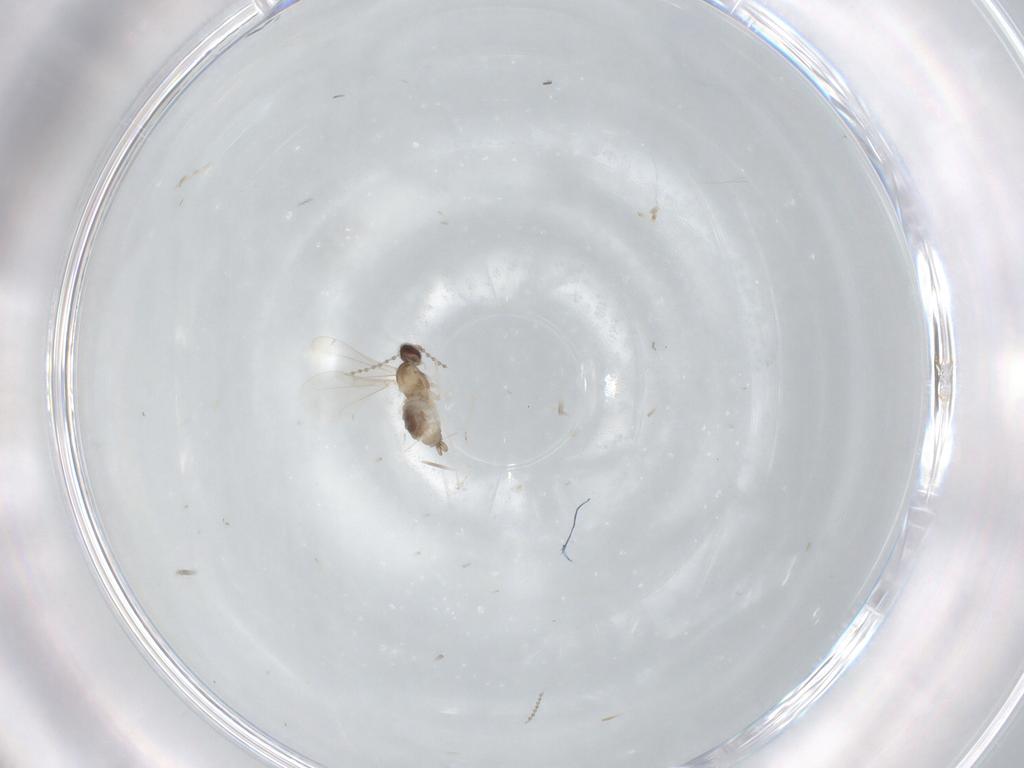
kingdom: Animalia
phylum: Arthropoda
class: Insecta
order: Diptera
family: Cecidomyiidae
